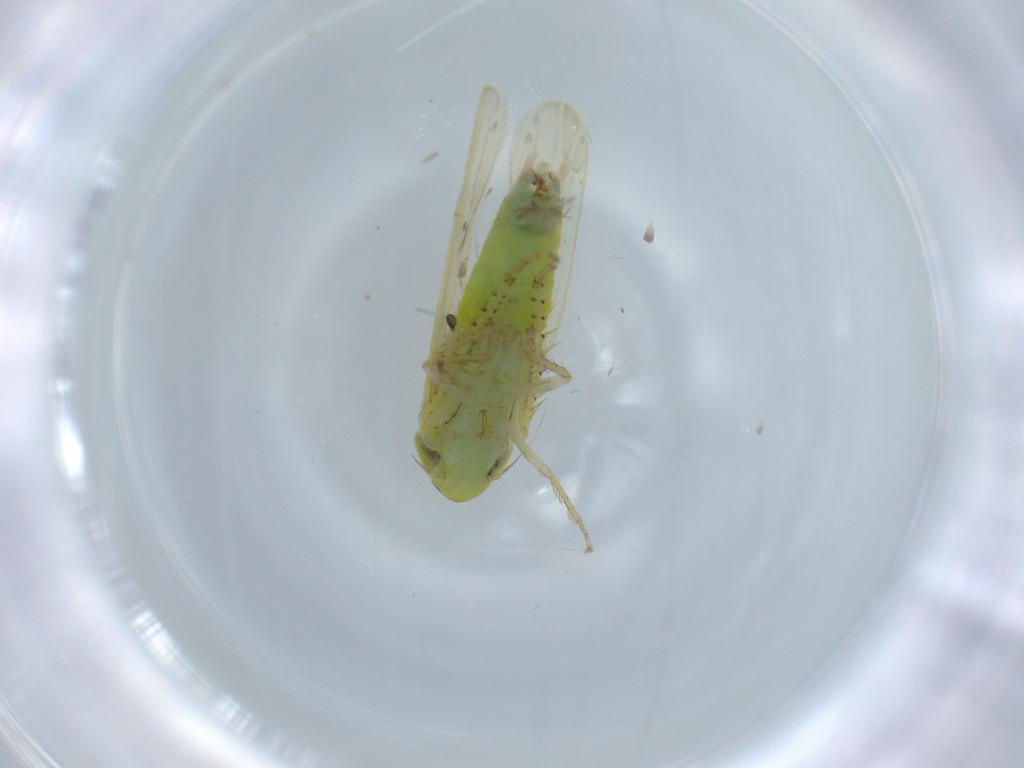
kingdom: Animalia
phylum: Arthropoda
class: Insecta
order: Hemiptera
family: Cicadellidae
